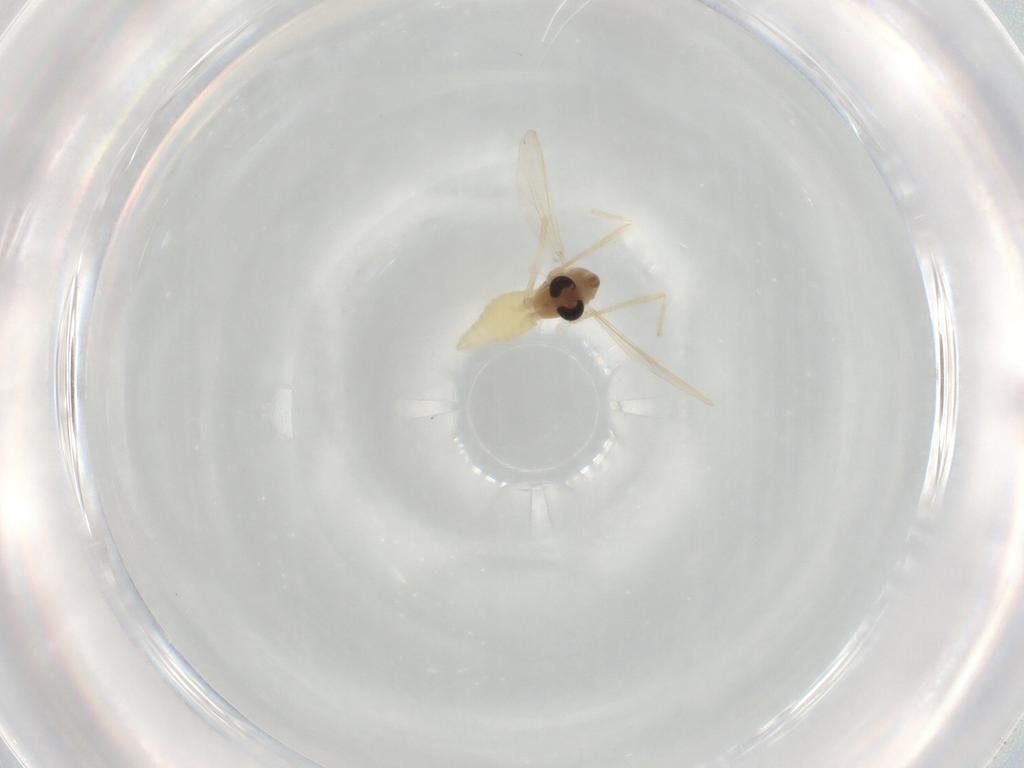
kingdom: Animalia
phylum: Arthropoda
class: Insecta
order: Diptera
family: Chironomidae
